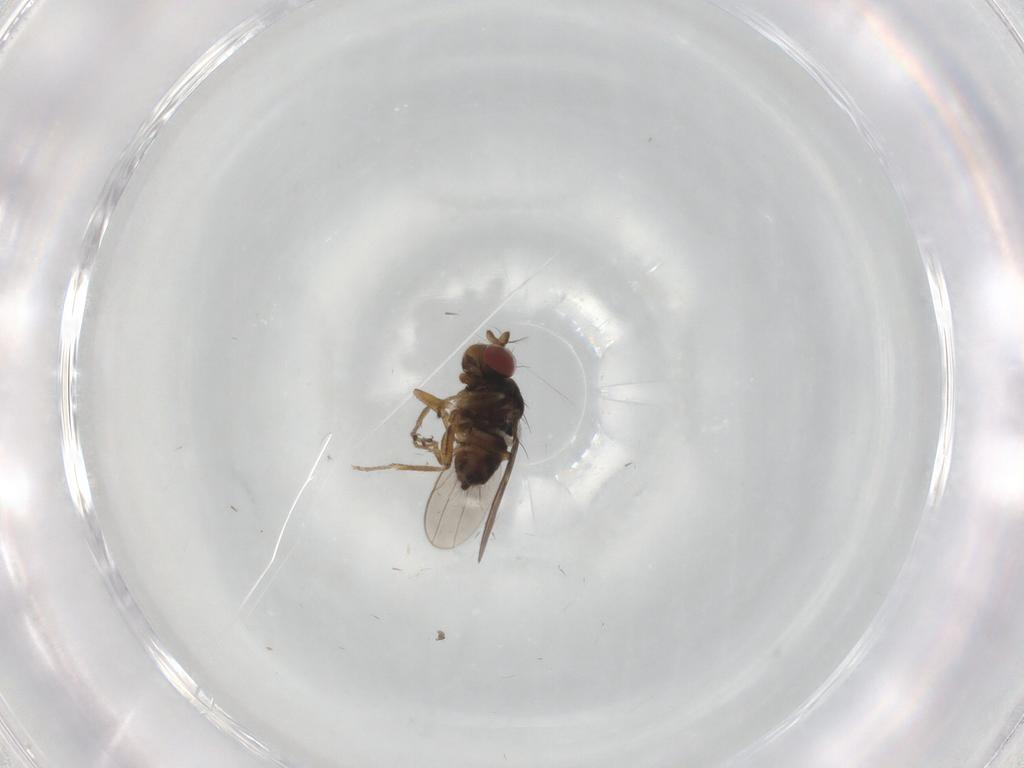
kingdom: Animalia
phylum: Arthropoda
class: Insecta
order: Diptera
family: Ephydridae
